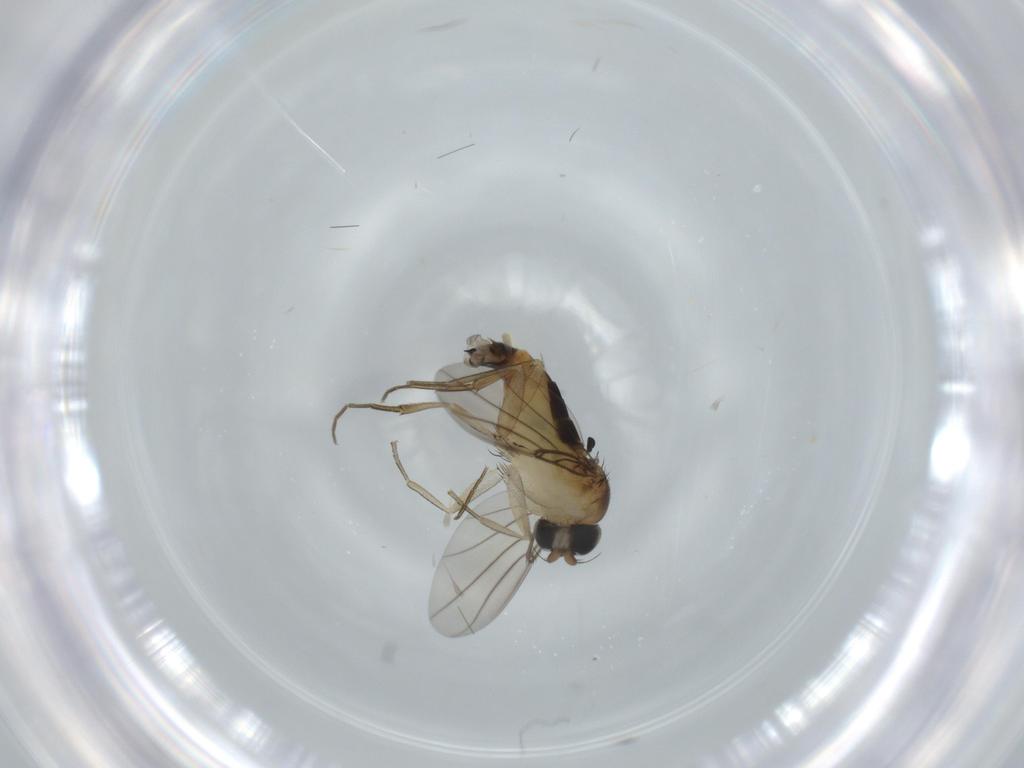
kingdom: Animalia
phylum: Arthropoda
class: Insecta
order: Diptera
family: Phoridae
